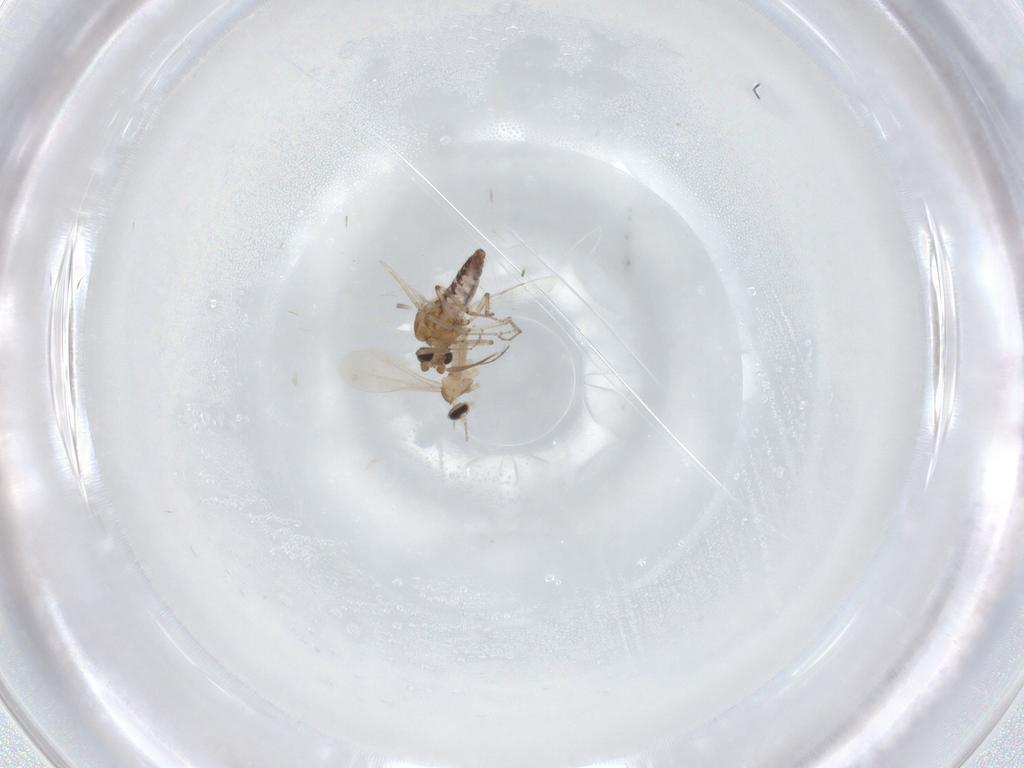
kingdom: Animalia
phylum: Arthropoda
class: Insecta
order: Diptera
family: Ceratopogonidae
